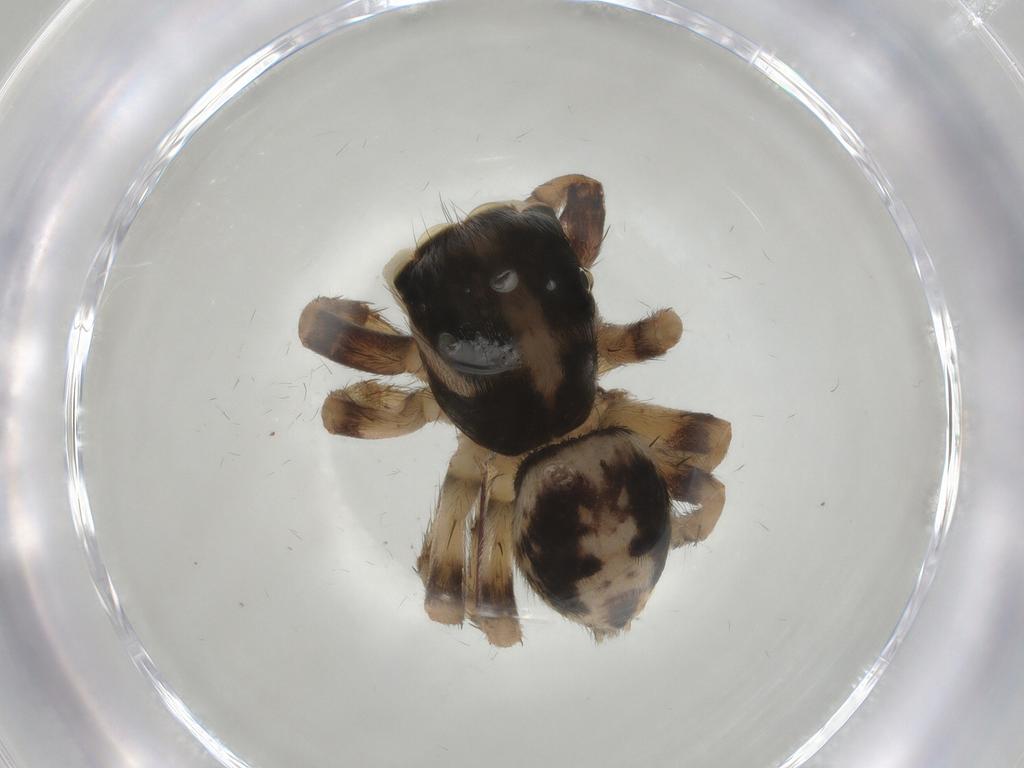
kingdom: Animalia
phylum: Arthropoda
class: Arachnida
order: Araneae
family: Salticidae
